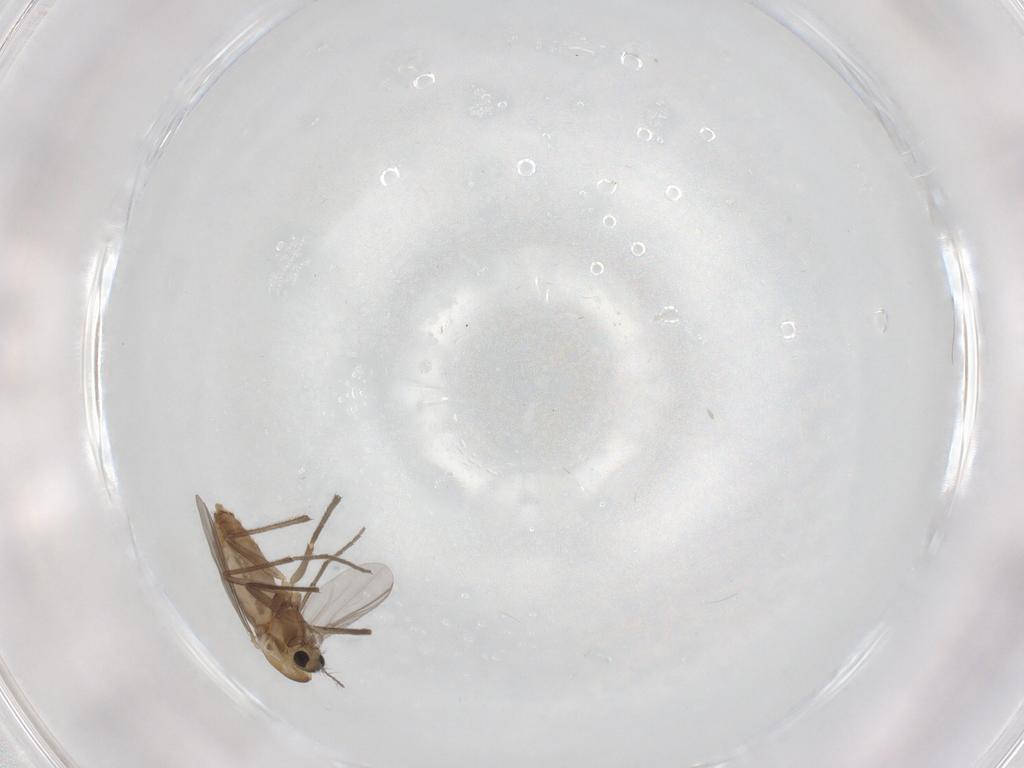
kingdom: Animalia
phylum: Arthropoda
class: Insecta
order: Diptera
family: Chironomidae
